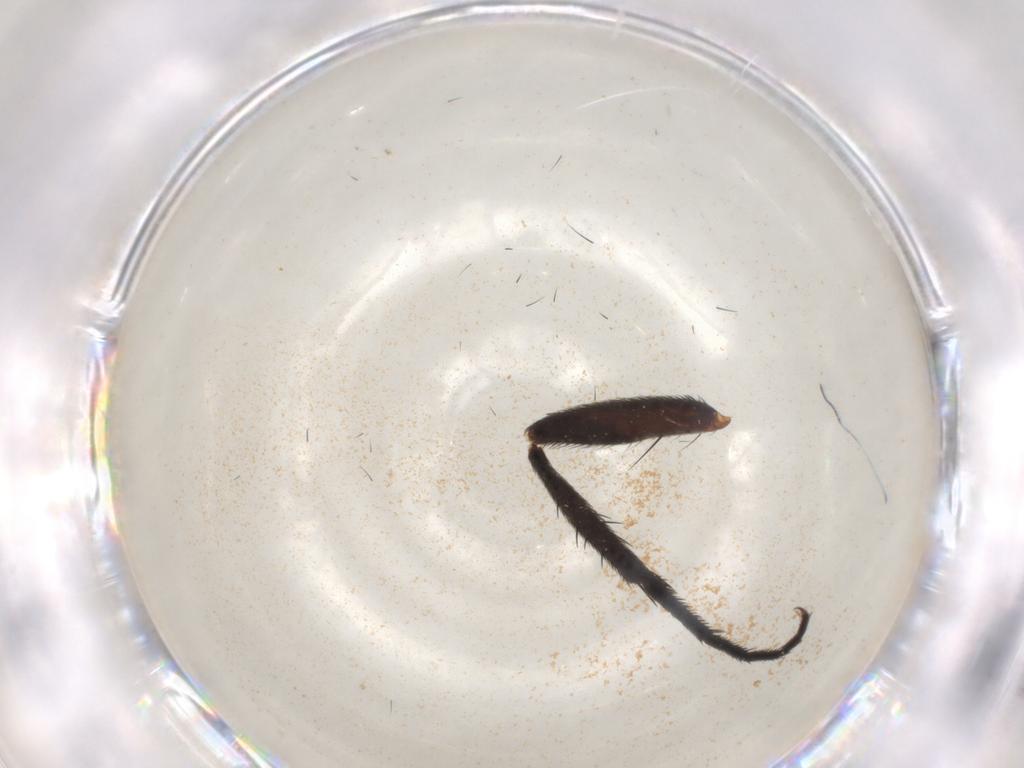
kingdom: Animalia
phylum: Arthropoda
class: Insecta
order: Diptera
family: Anthomyiidae
